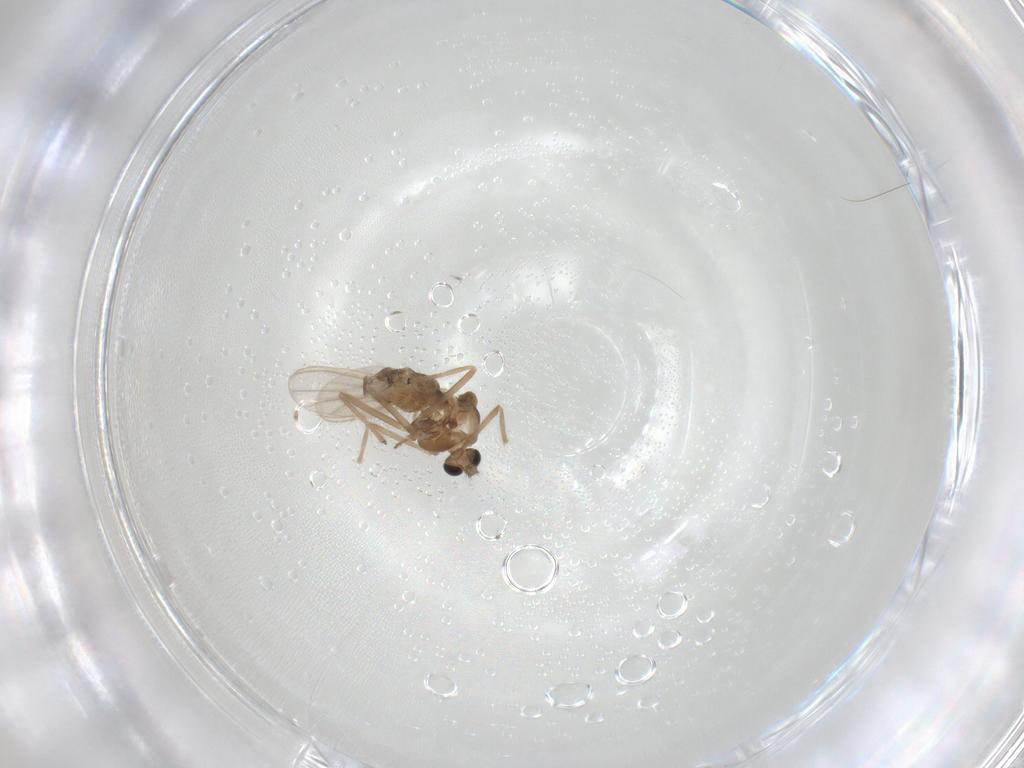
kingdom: Animalia
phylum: Arthropoda
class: Insecta
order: Diptera
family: Chironomidae
